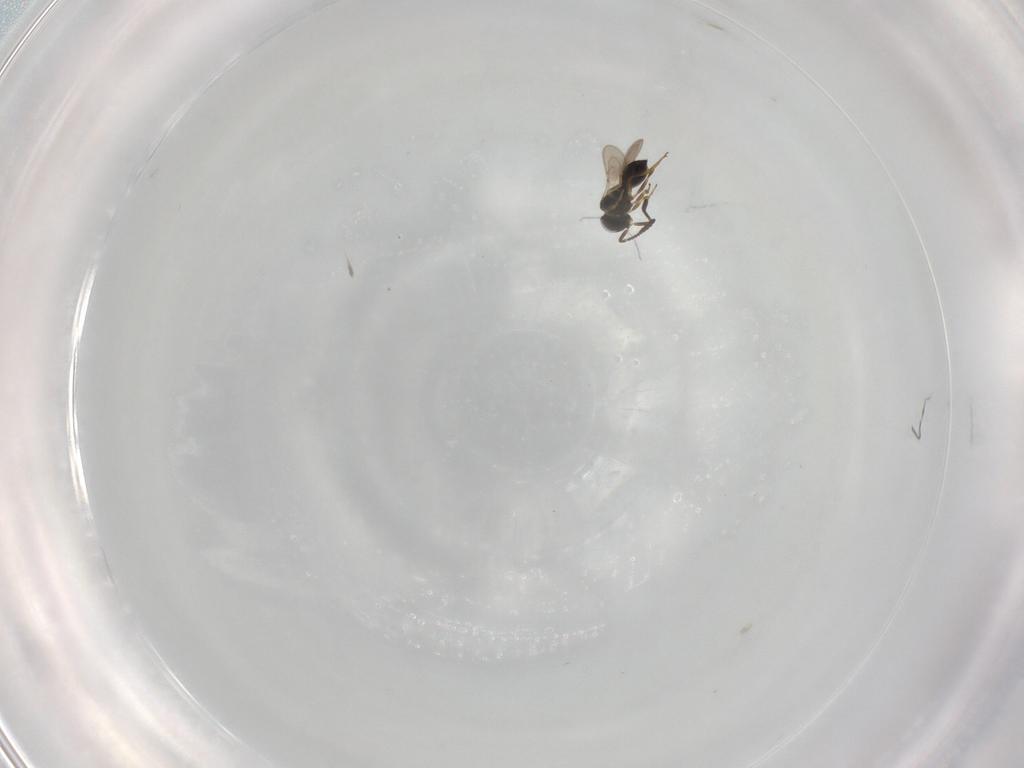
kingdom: Animalia
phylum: Arthropoda
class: Insecta
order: Hymenoptera
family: Scelionidae
